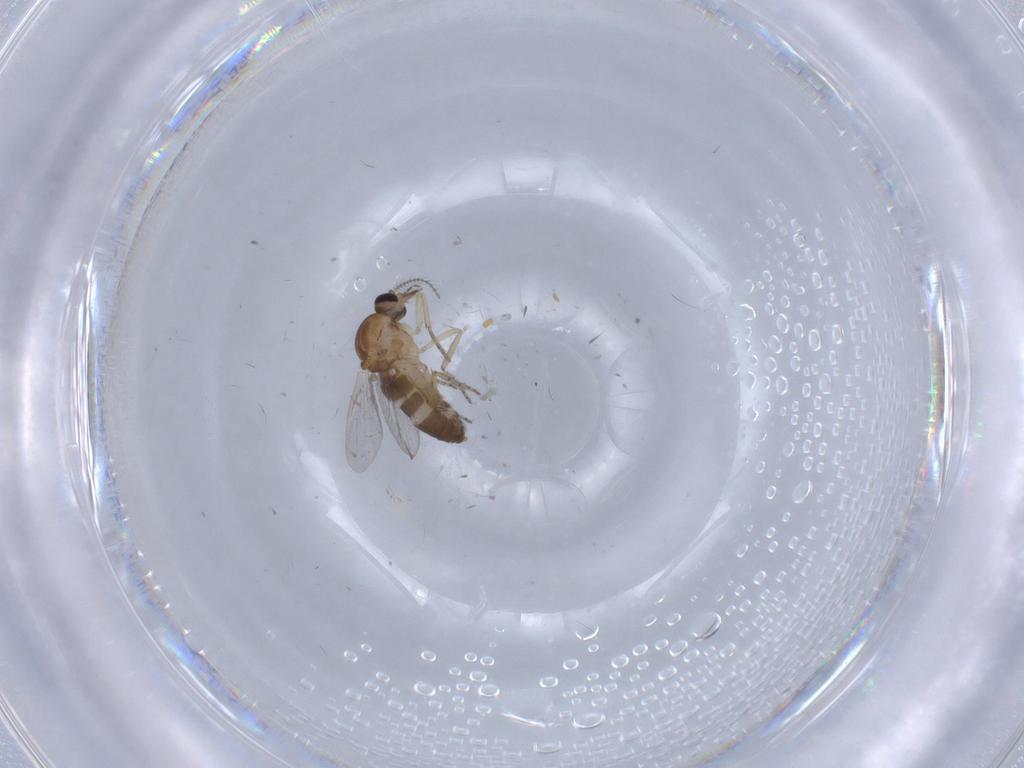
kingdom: Animalia
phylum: Arthropoda
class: Insecta
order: Diptera
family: Ceratopogonidae
